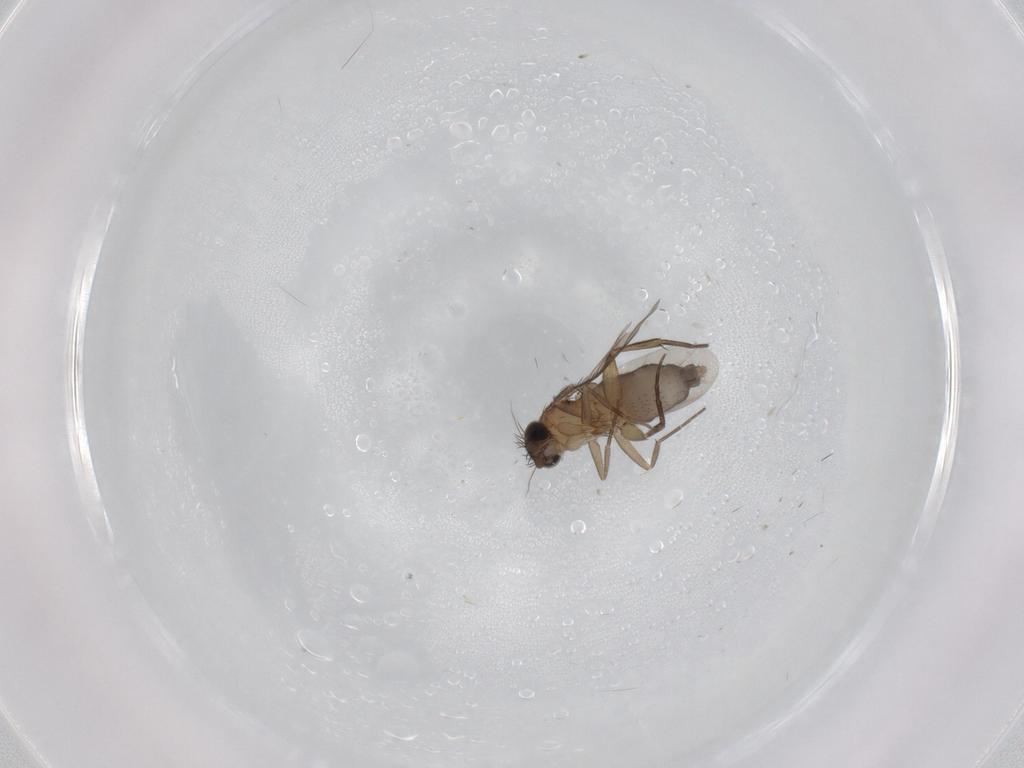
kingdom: Animalia
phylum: Arthropoda
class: Insecta
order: Diptera
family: Phoridae
